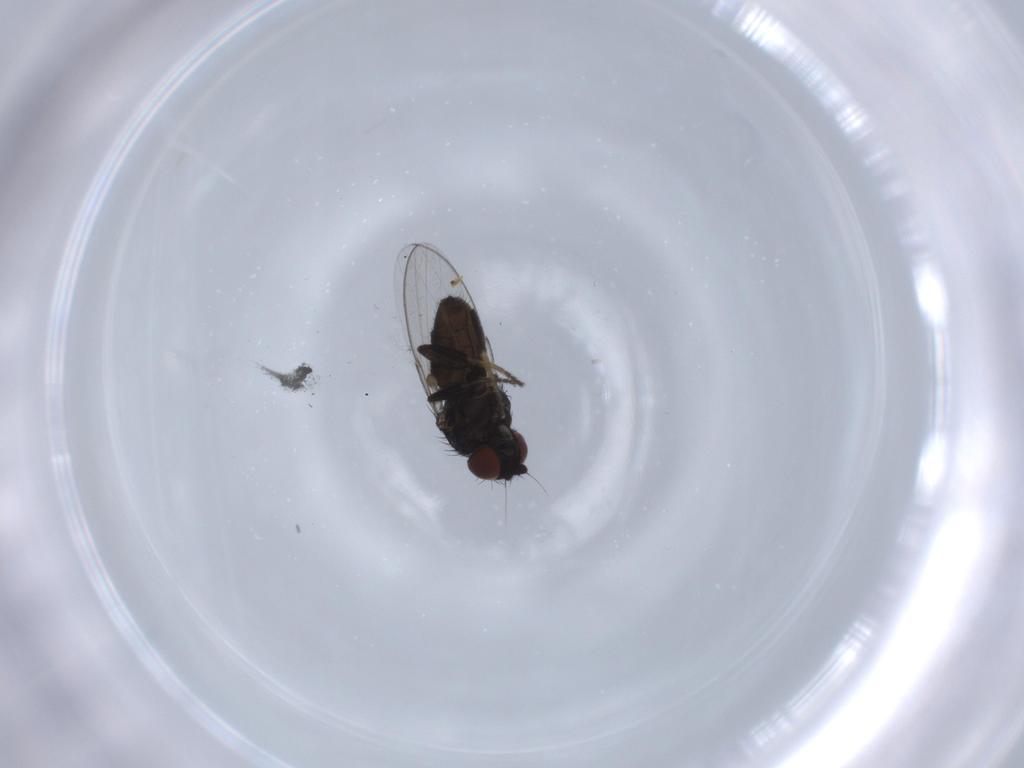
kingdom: Animalia
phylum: Arthropoda
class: Insecta
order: Diptera
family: Milichiidae
